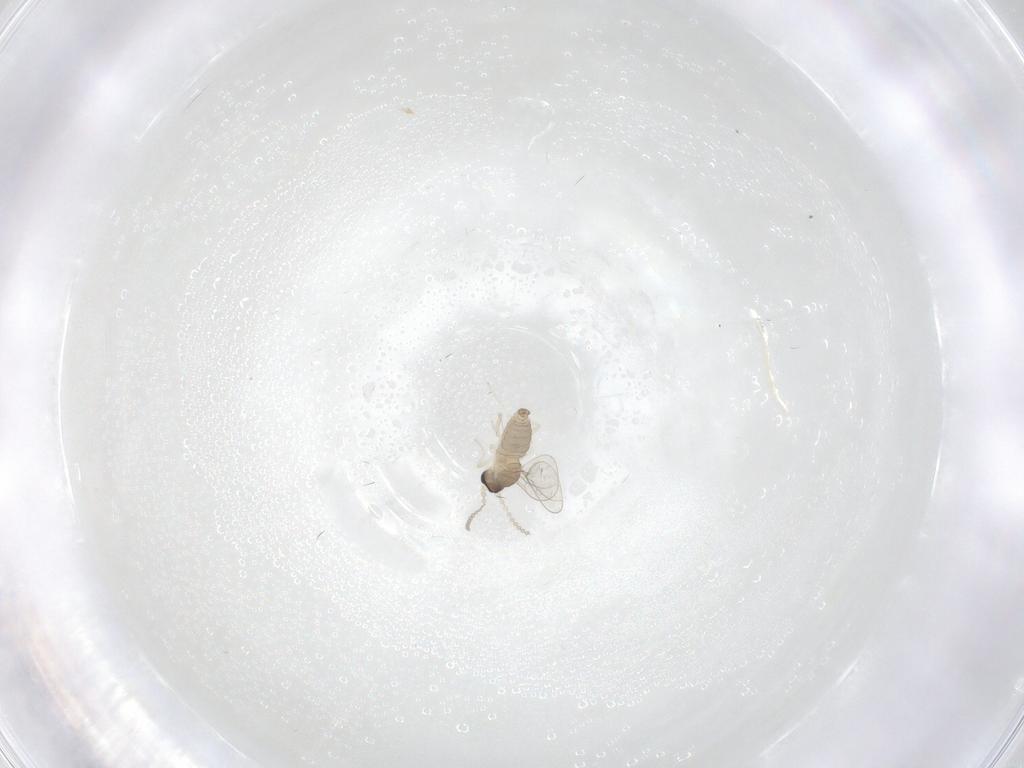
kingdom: Animalia
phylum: Arthropoda
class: Insecta
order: Diptera
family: Cecidomyiidae
